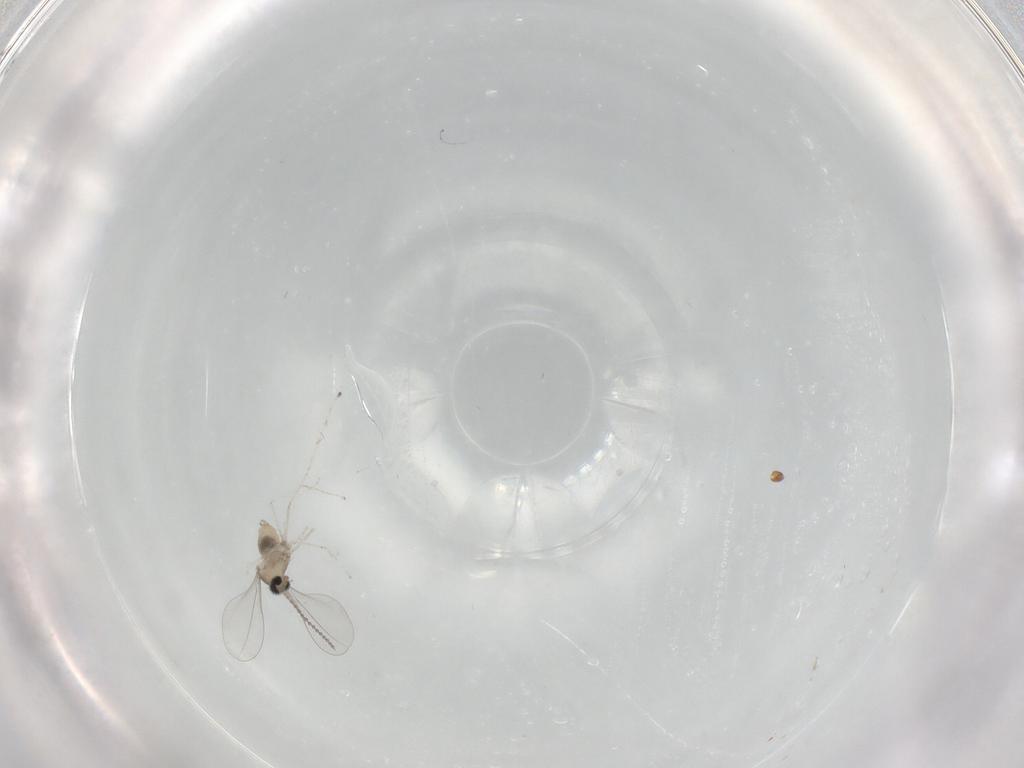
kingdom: Animalia
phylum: Arthropoda
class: Insecta
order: Diptera
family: Cecidomyiidae
